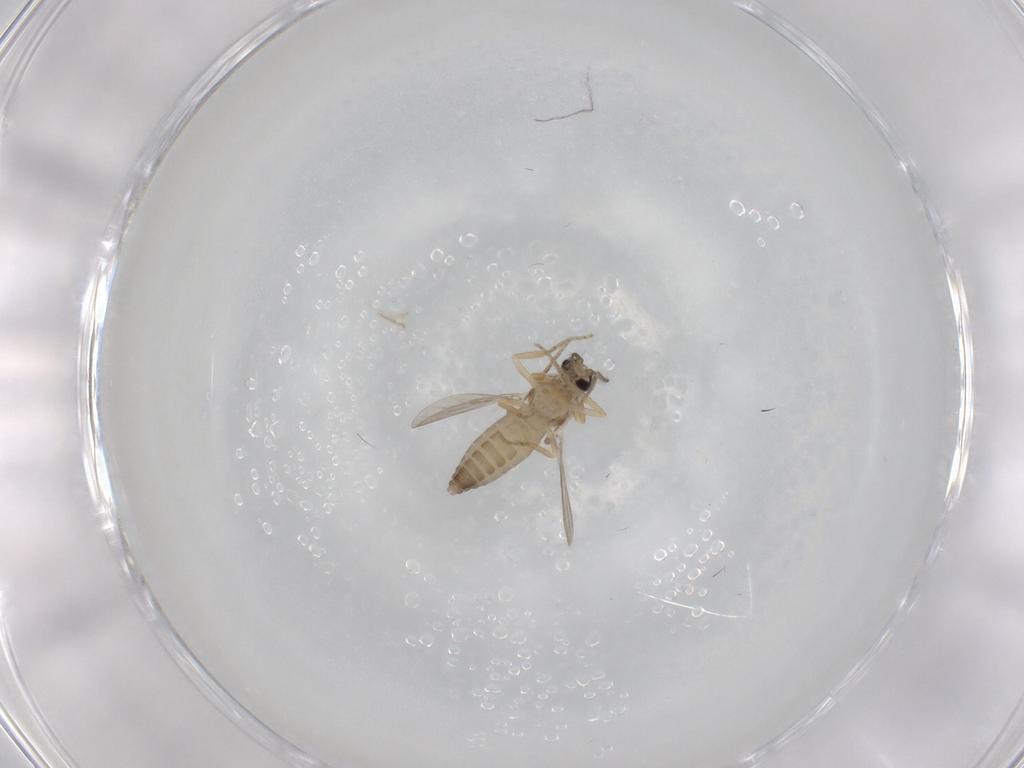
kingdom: Animalia
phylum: Arthropoda
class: Insecta
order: Diptera
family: Ceratopogonidae
